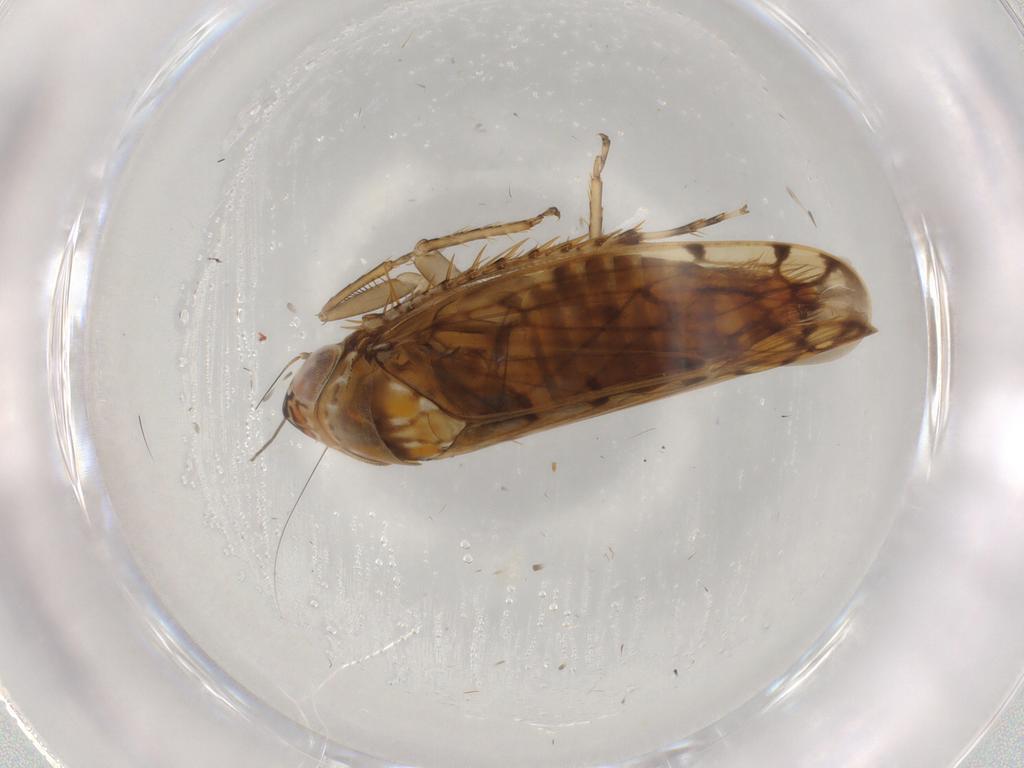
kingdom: Animalia
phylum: Arthropoda
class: Insecta
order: Hemiptera
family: Cicadellidae
